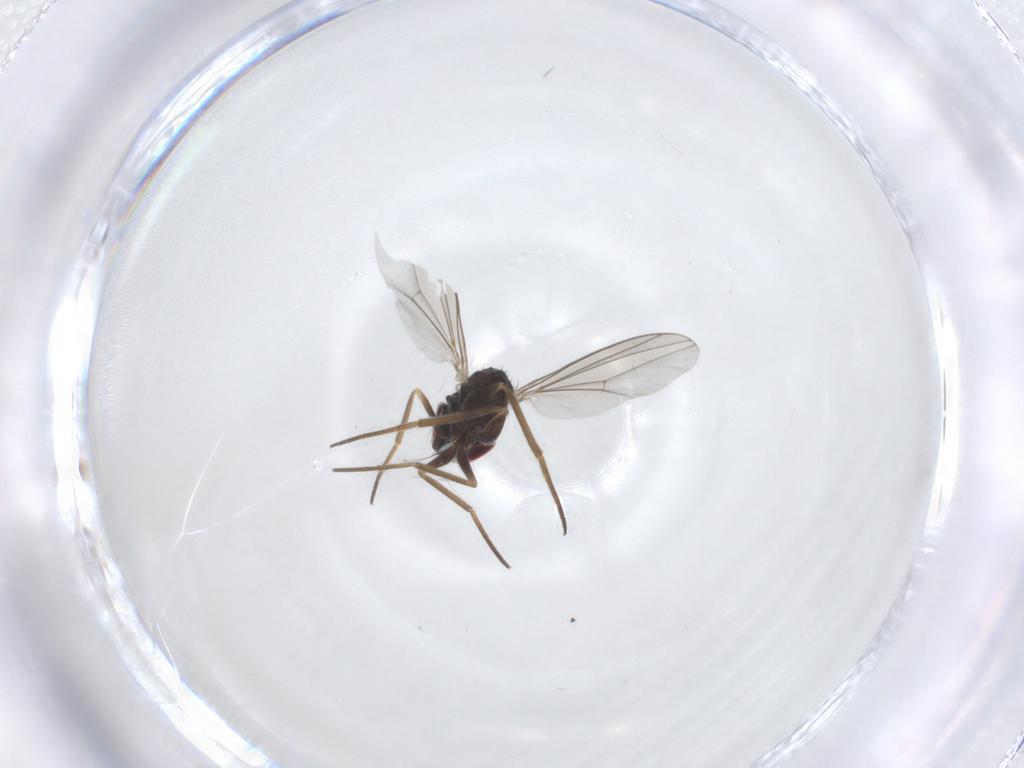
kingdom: Animalia
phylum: Arthropoda
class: Insecta
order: Diptera
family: Dolichopodidae
